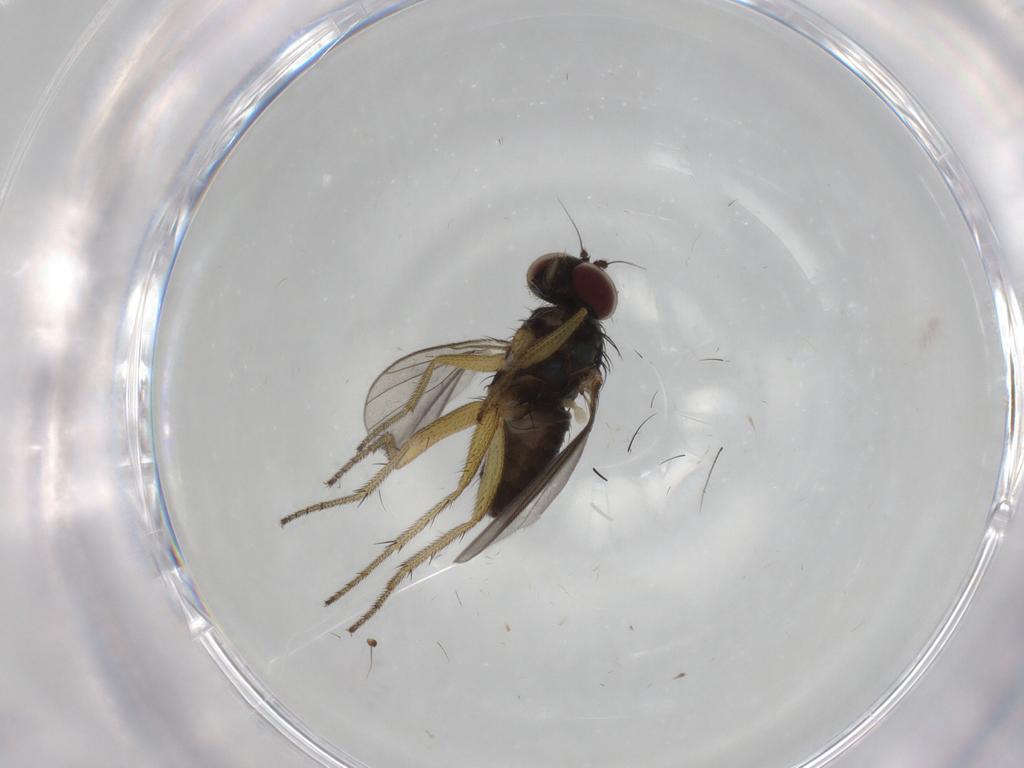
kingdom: Animalia
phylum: Arthropoda
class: Insecta
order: Diptera
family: Dolichopodidae
